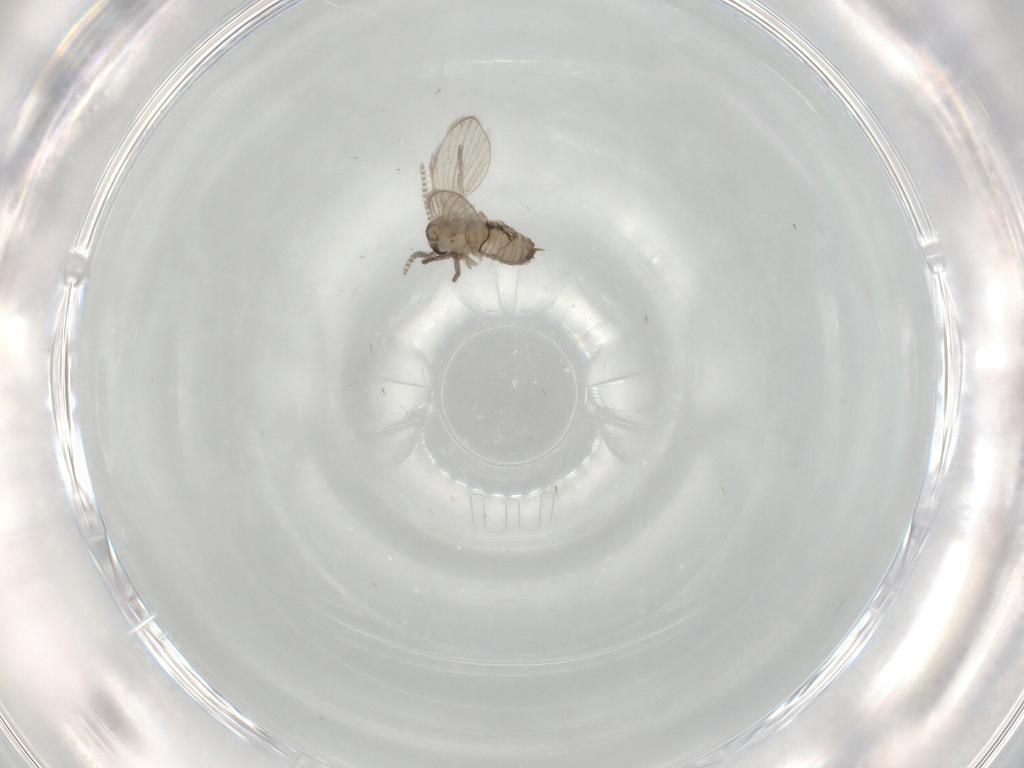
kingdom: Animalia
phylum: Arthropoda
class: Insecta
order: Diptera
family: Psychodidae
